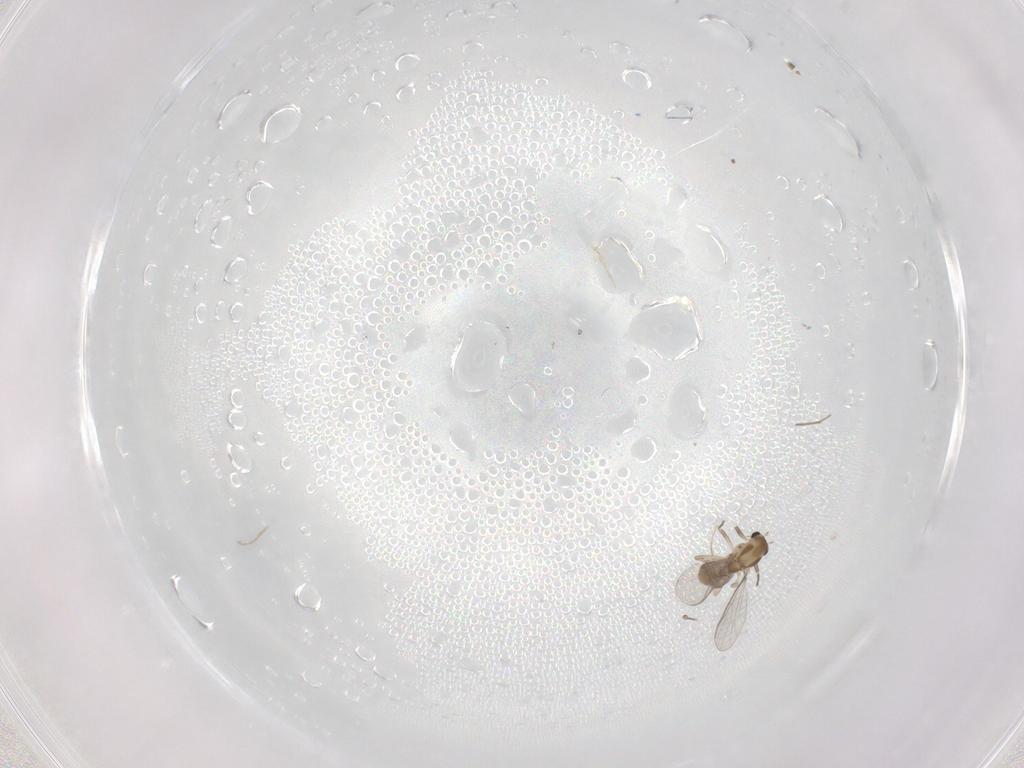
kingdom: Animalia
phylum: Arthropoda
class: Insecta
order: Diptera
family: Chironomidae
